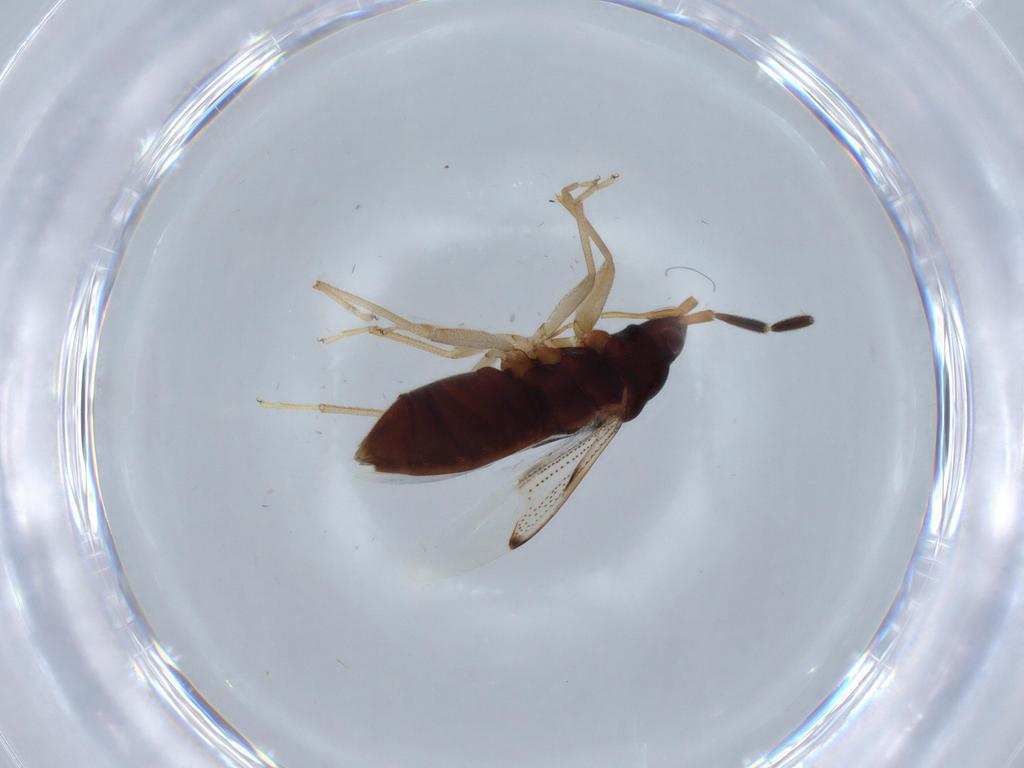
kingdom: Animalia
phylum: Arthropoda
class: Insecta
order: Hemiptera
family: Rhyparochromidae
